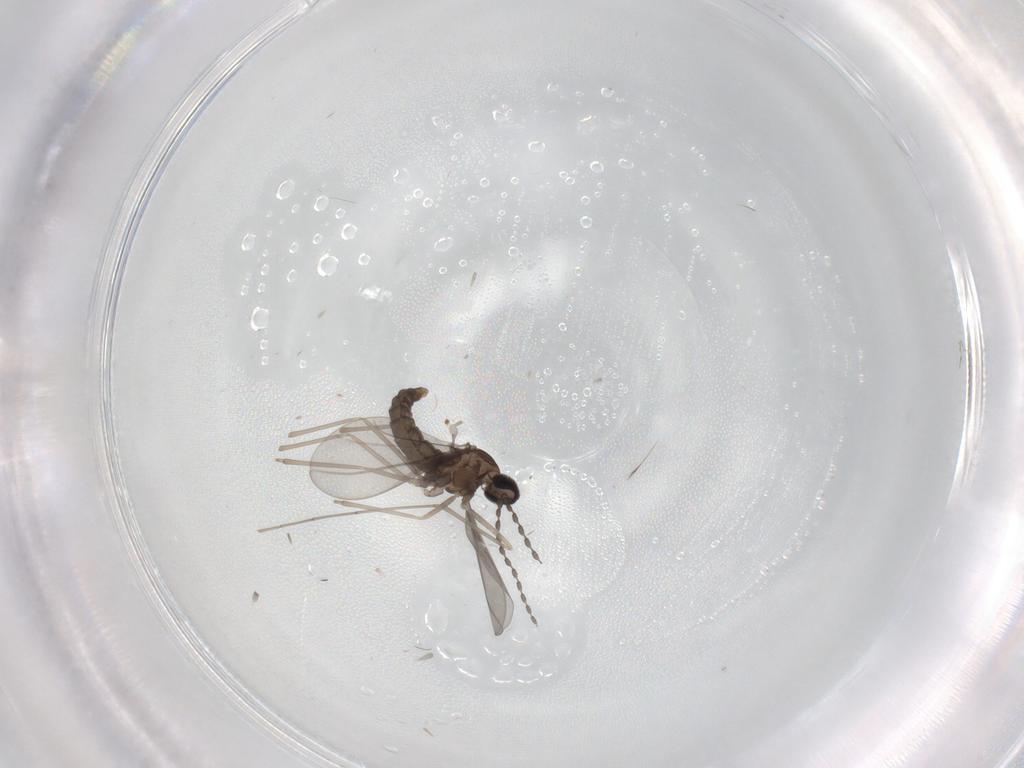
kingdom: Animalia
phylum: Arthropoda
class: Insecta
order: Diptera
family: Cecidomyiidae
